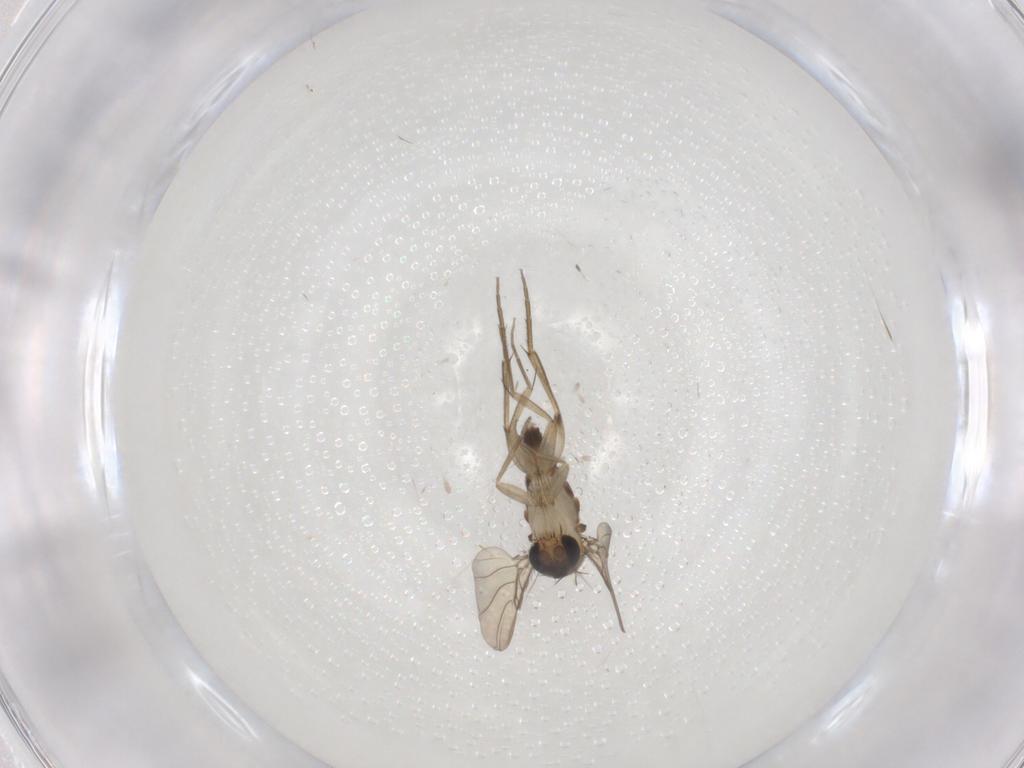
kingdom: Animalia
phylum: Arthropoda
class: Insecta
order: Diptera
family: Phoridae
